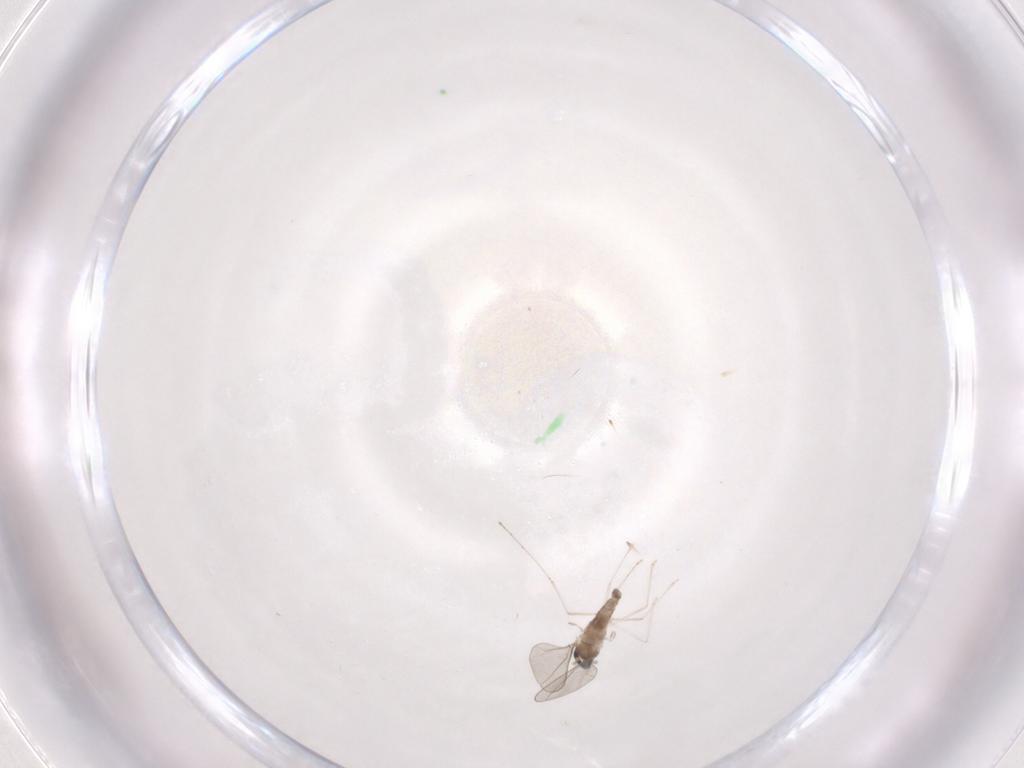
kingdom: Animalia
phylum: Arthropoda
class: Insecta
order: Diptera
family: Cecidomyiidae
